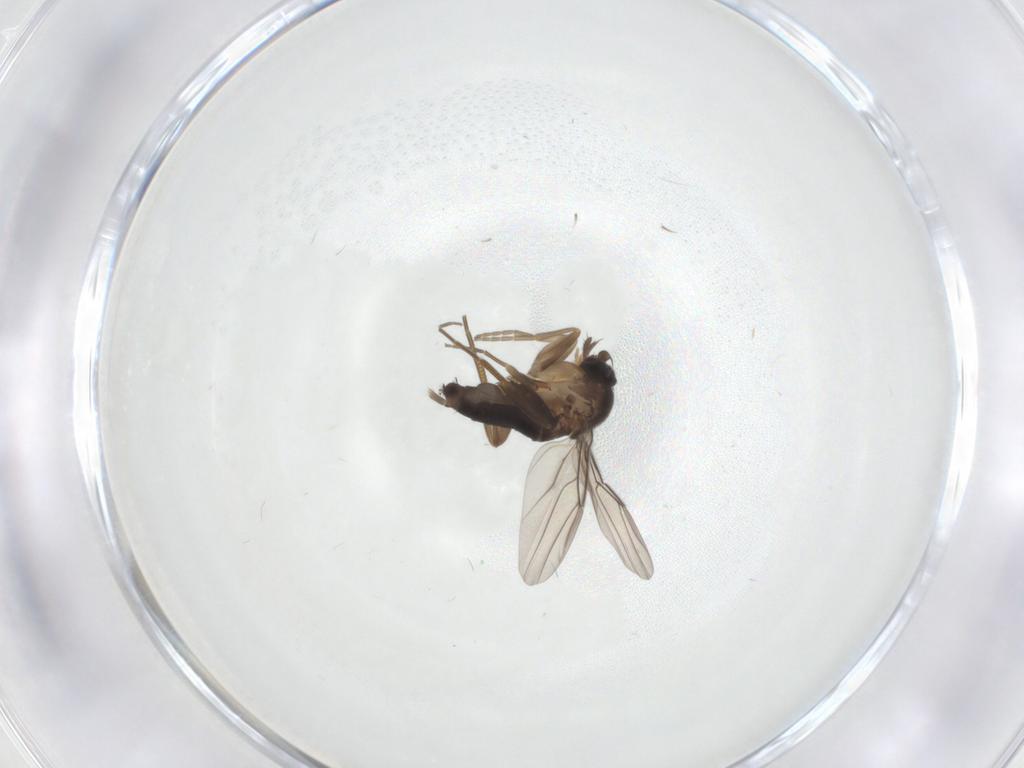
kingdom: Animalia
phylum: Arthropoda
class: Insecta
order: Diptera
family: Phoridae
